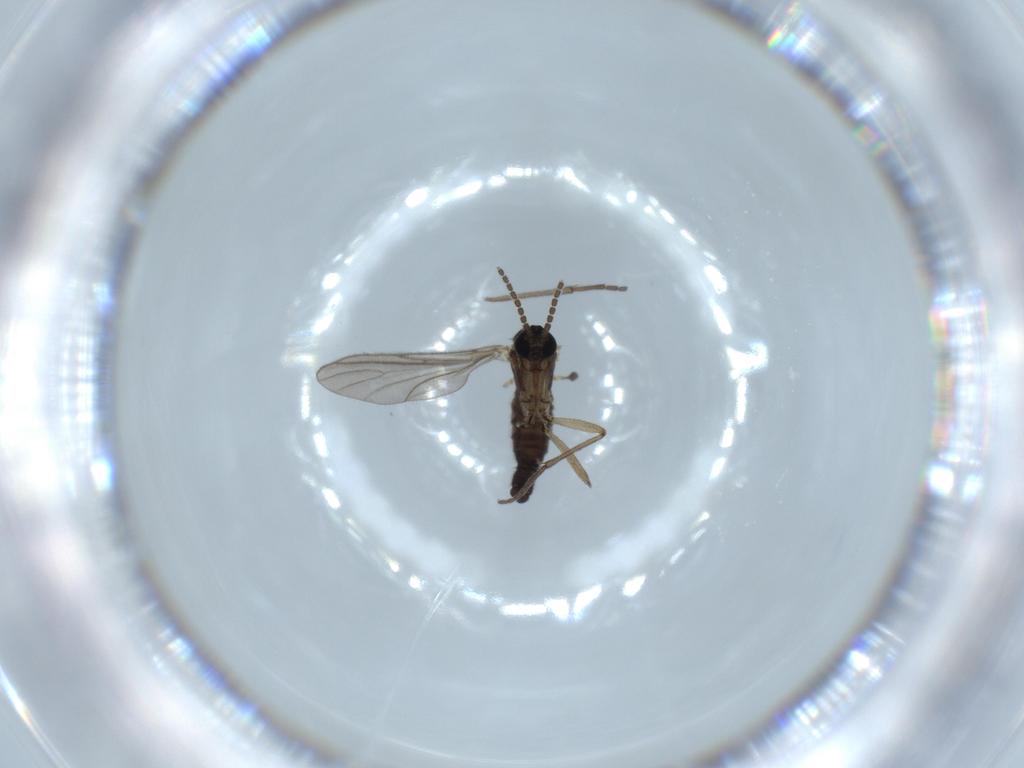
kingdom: Animalia
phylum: Arthropoda
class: Insecta
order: Diptera
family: Sciaridae
